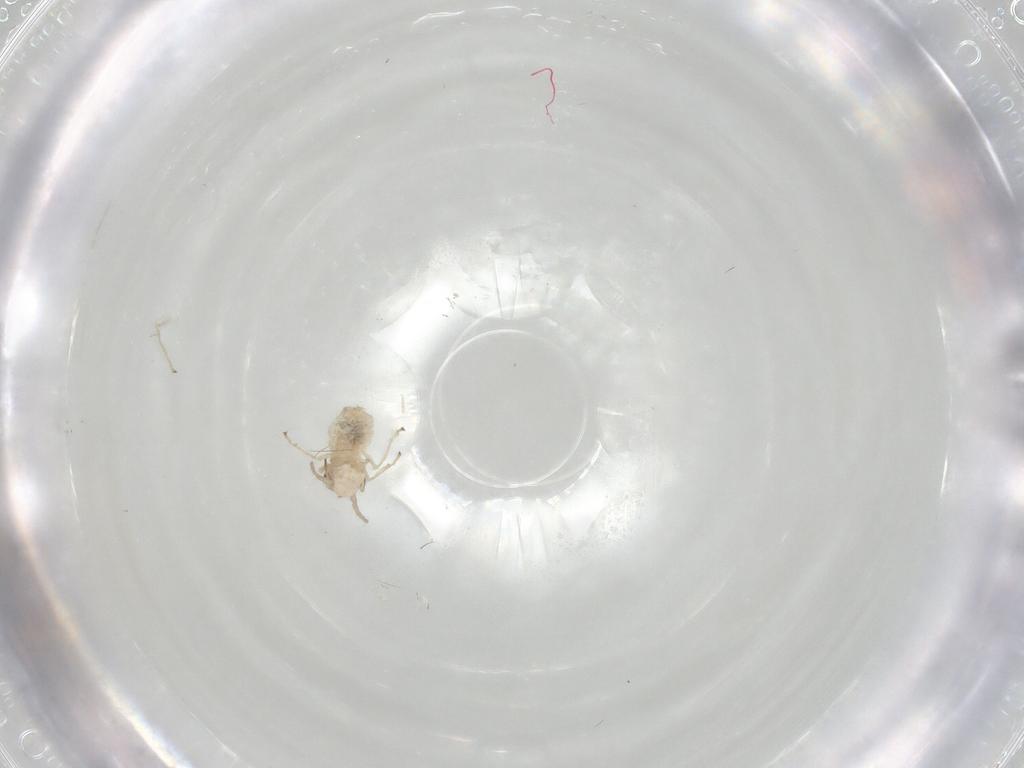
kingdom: Animalia
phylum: Arthropoda
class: Insecta
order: Psocodea
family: Amphipsocidae
